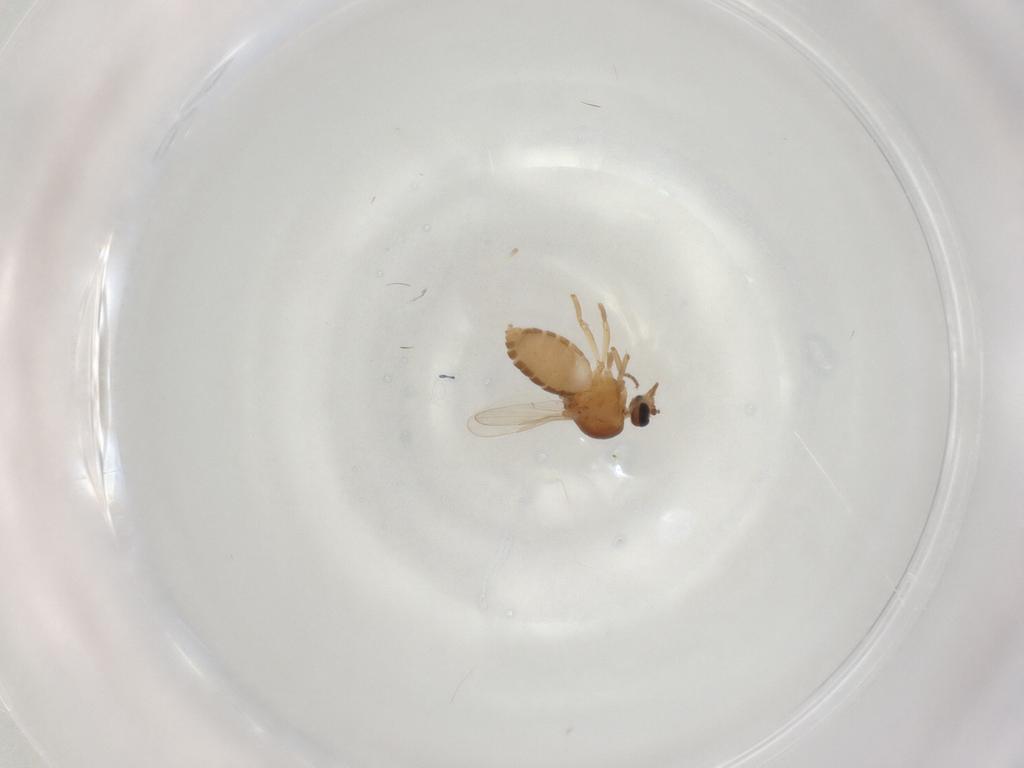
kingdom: Animalia
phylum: Arthropoda
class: Insecta
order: Diptera
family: Ceratopogonidae
